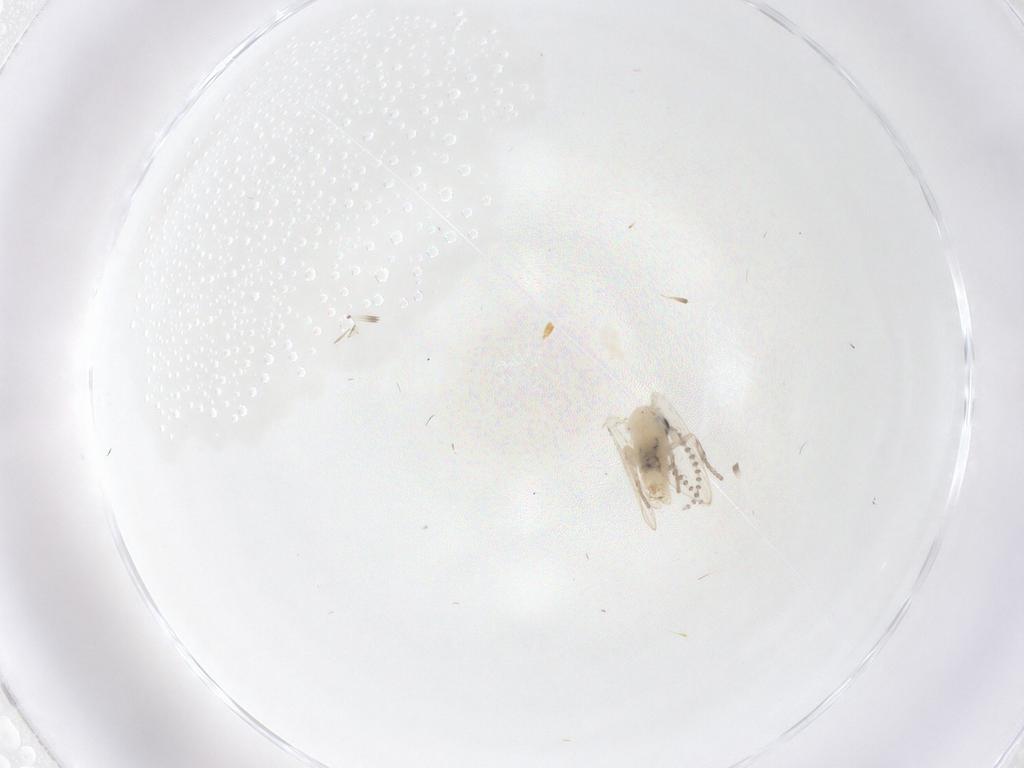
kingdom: Animalia
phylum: Arthropoda
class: Insecta
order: Diptera
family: Psychodidae
